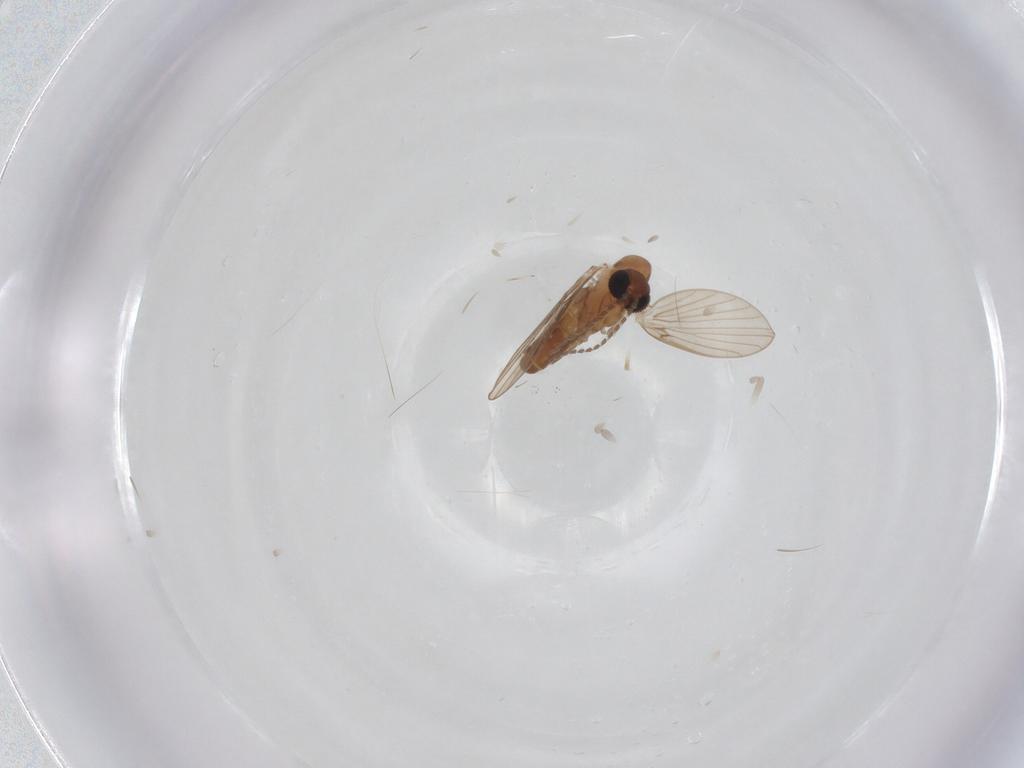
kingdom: Animalia
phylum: Arthropoda
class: Insecta
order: Diptera
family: Cecidomyiidae
